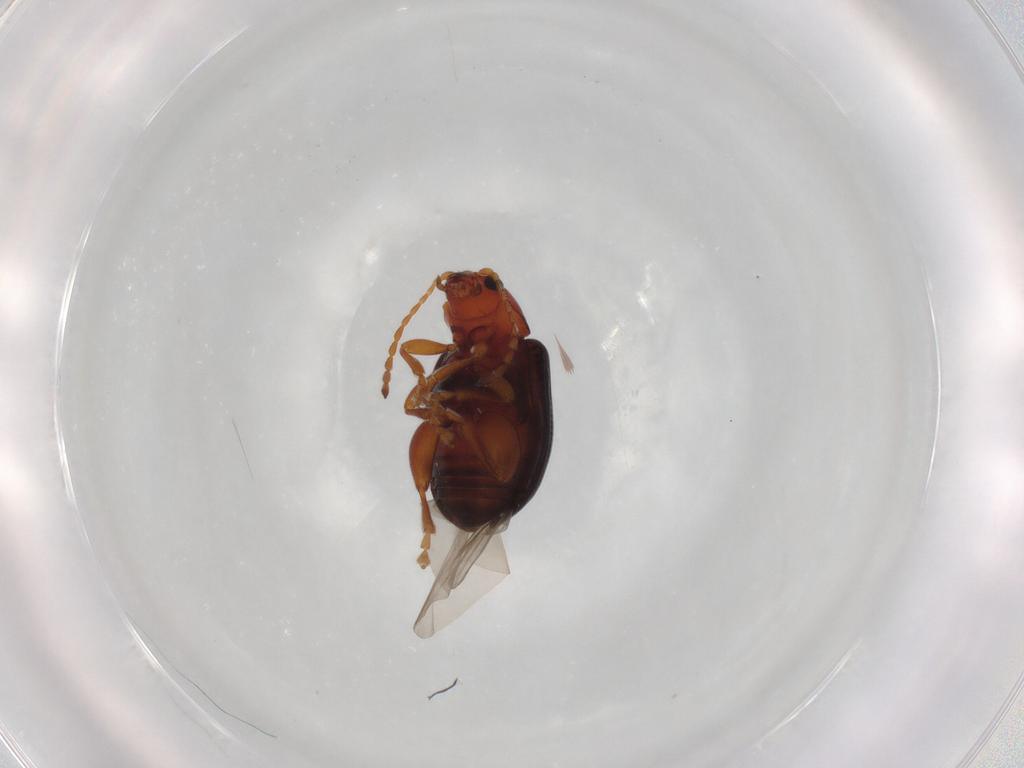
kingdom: Animalia
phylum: Arthropoda
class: Insecta
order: Coleoptera
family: Chrysomelidae
